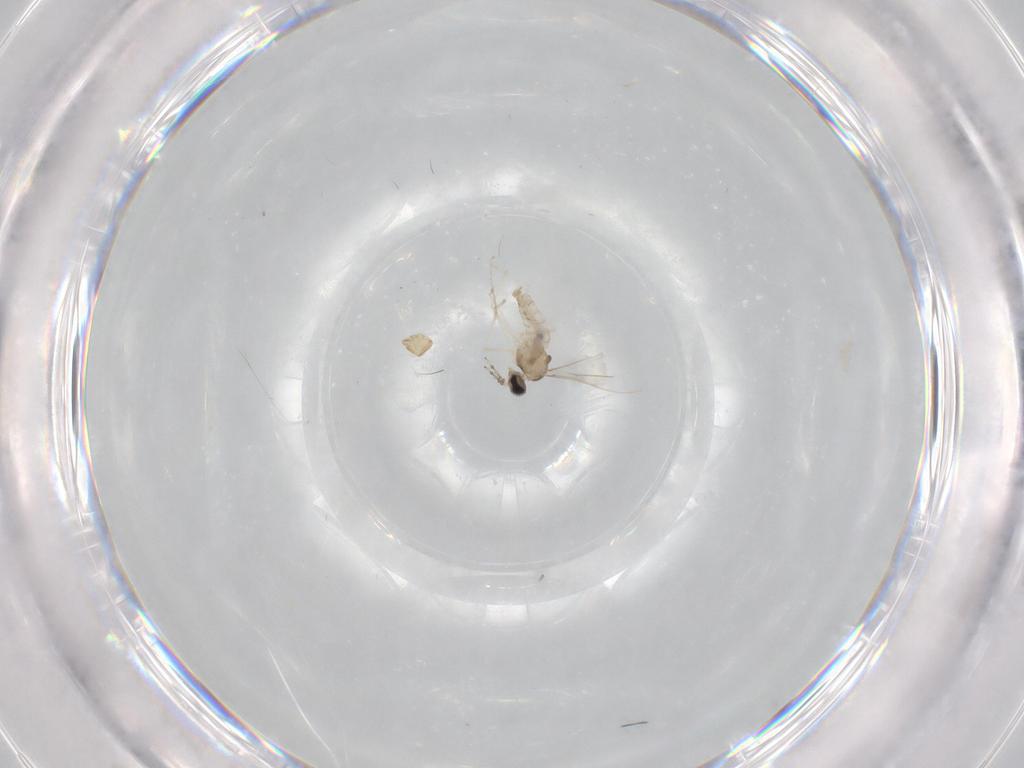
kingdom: Animalia
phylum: Arthropoda
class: Insecta
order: Diptera
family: Cecidomyiidae
